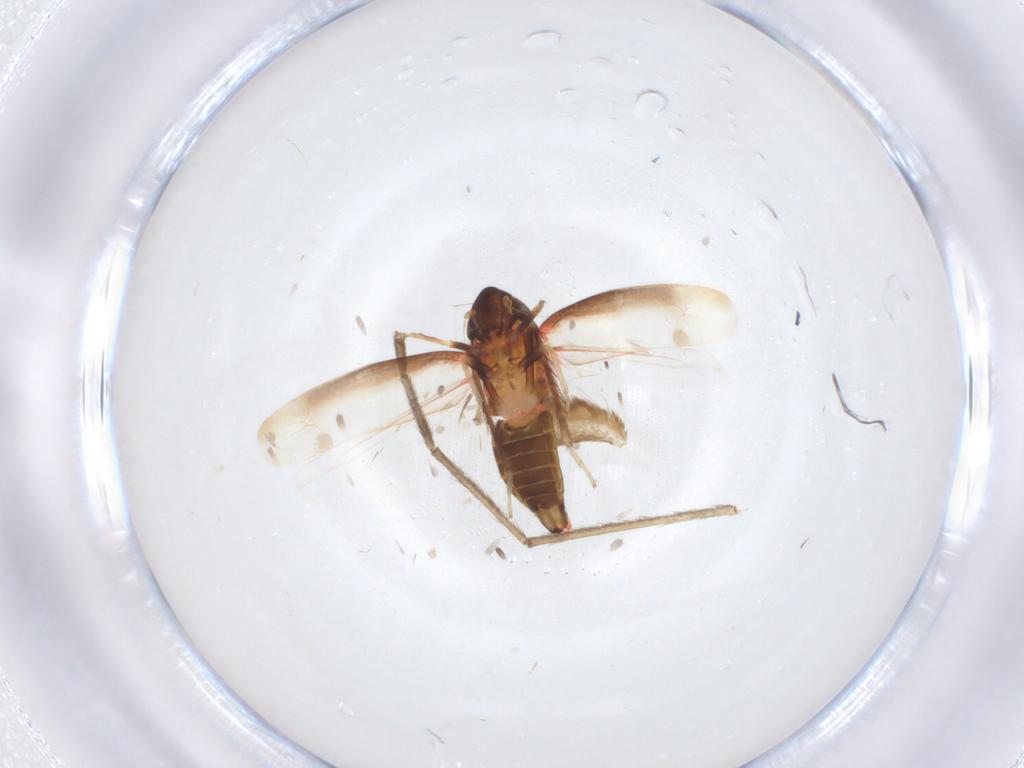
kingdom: Animalia
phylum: Arthropoda
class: Insecta
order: Hemiptera
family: Cicadellidae
